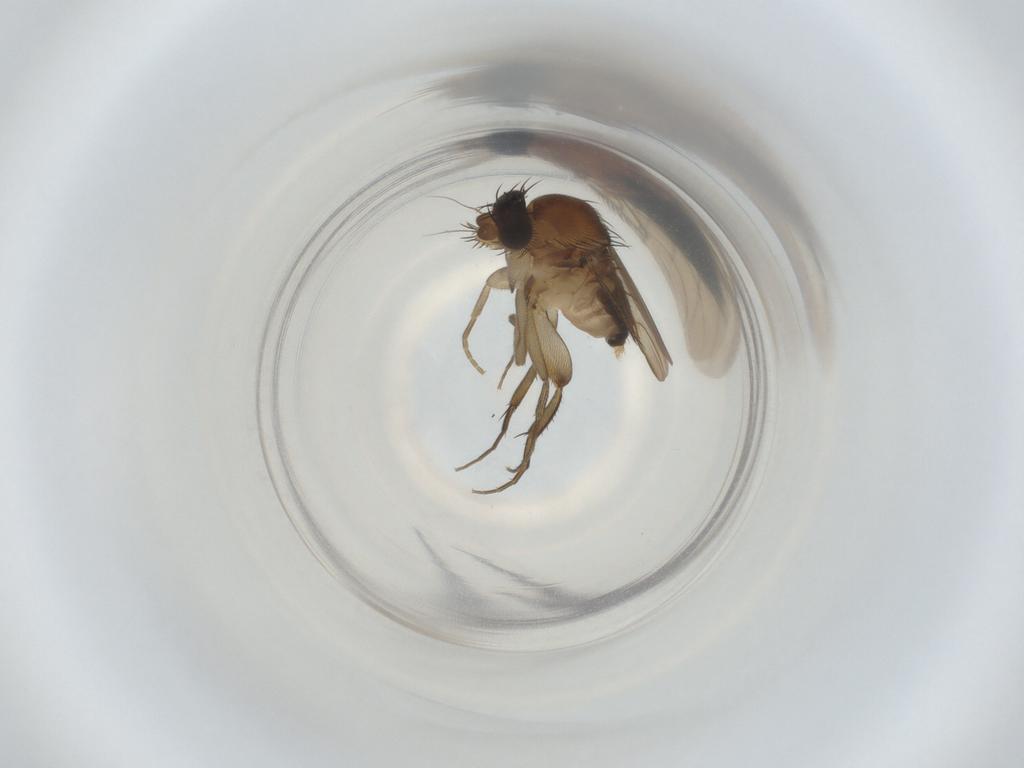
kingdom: Animalia
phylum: Arthropoda
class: Insecta
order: Diptera
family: Phoridae
